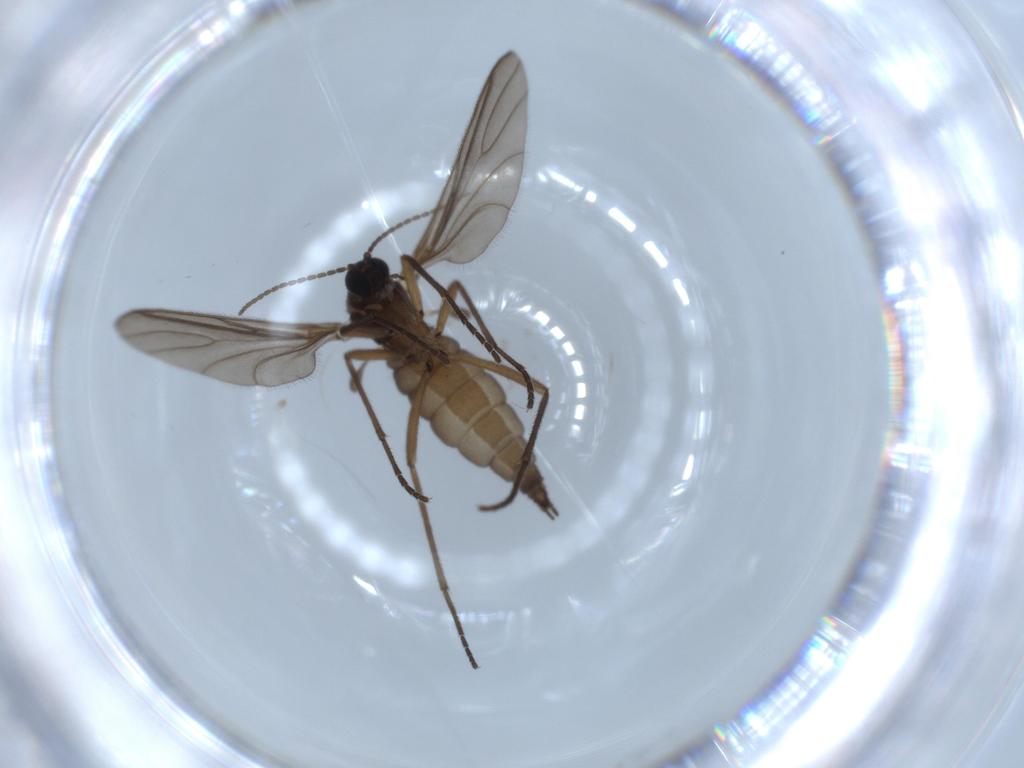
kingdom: Animalia
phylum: Arthropoda
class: Insecta
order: Diptera
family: Sciaridae
